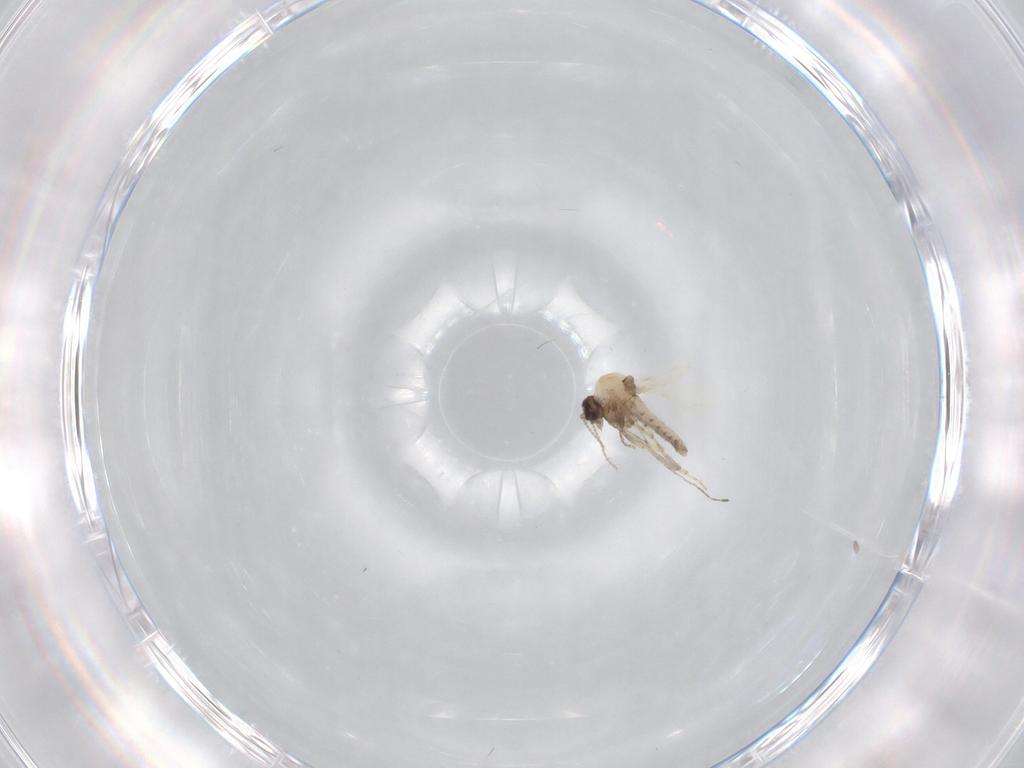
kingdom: Animalia
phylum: Arthropoda
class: Insecta
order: Diptera
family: Ceratopogonidae
